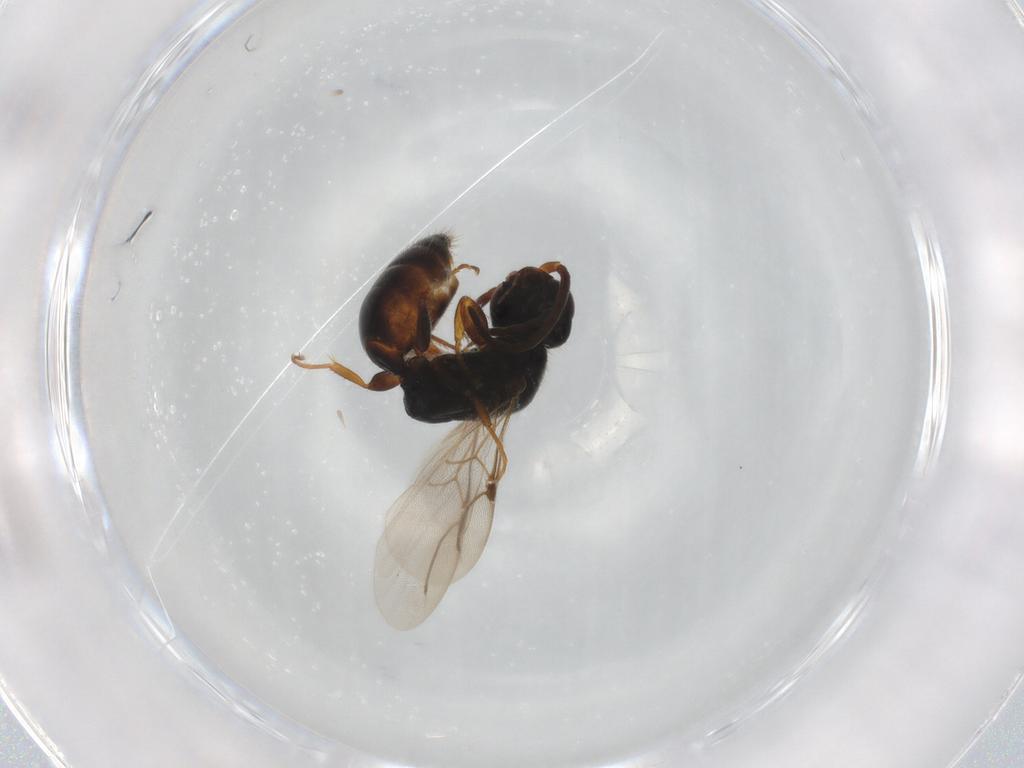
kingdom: Animalia
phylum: Arthropoda
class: Insecta
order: Hymenoptera
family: Bethylidae
